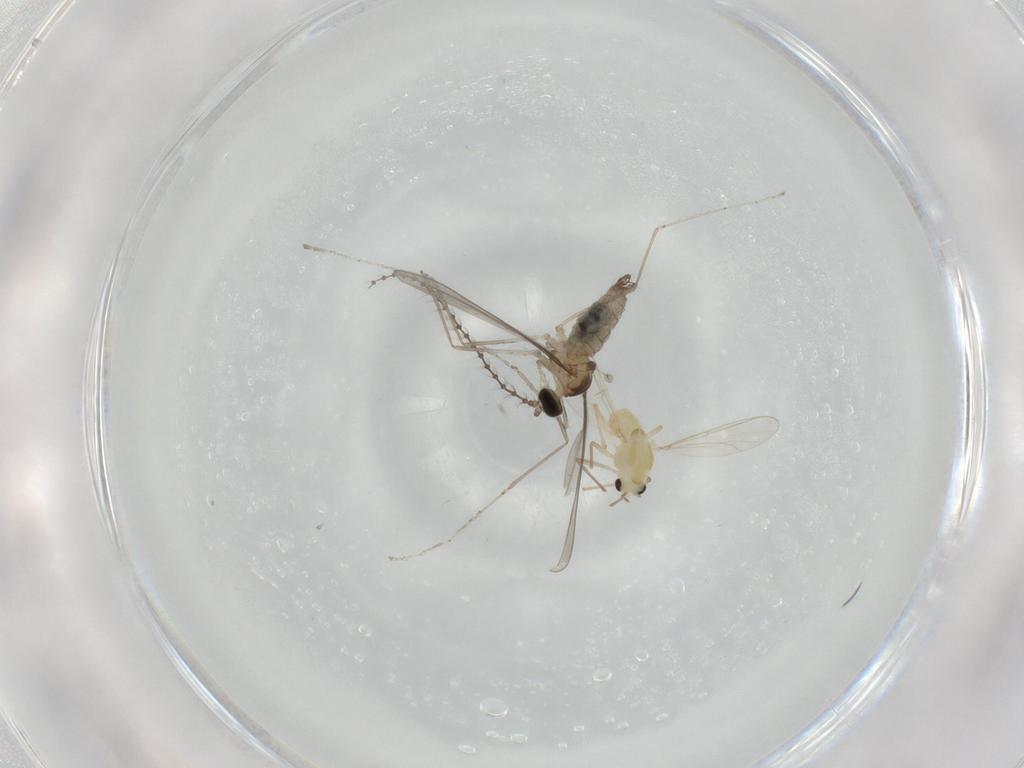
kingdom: Animalia
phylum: Arthropoda
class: Insecta
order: Diptera
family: Chironomidae
